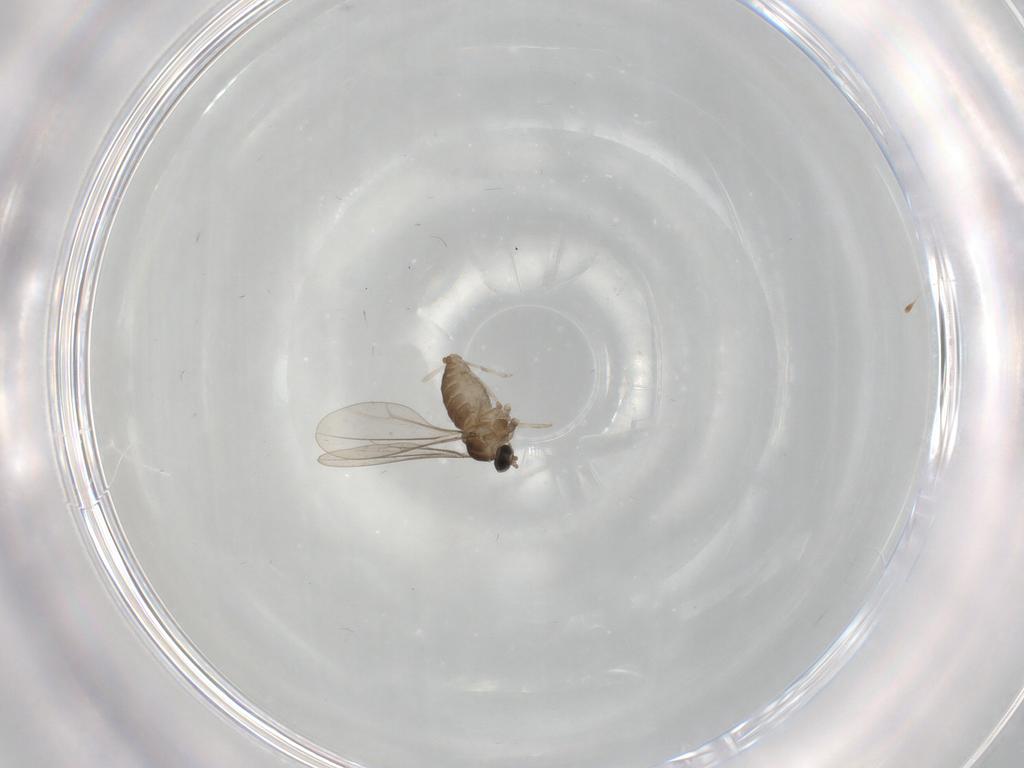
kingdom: Animalia
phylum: Arthropoda
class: Insecta
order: Diptera
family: Cecidomyiidae
